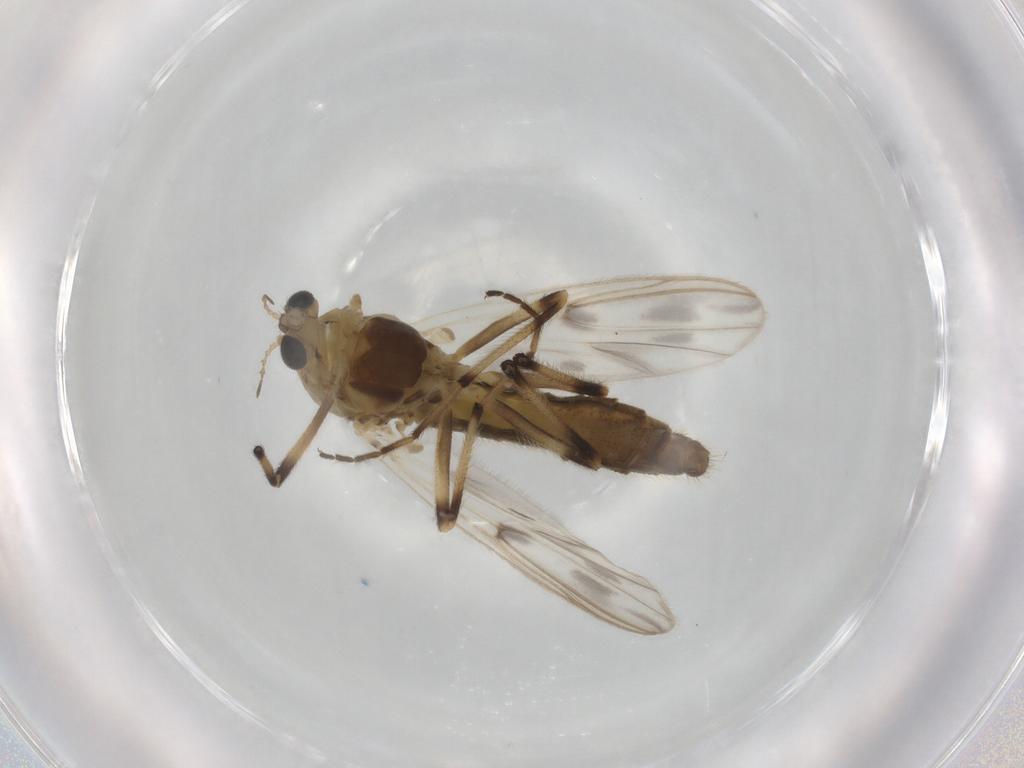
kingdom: Animalia
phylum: Arthropoda
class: Insecta
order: Diptera
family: Chironomidae
